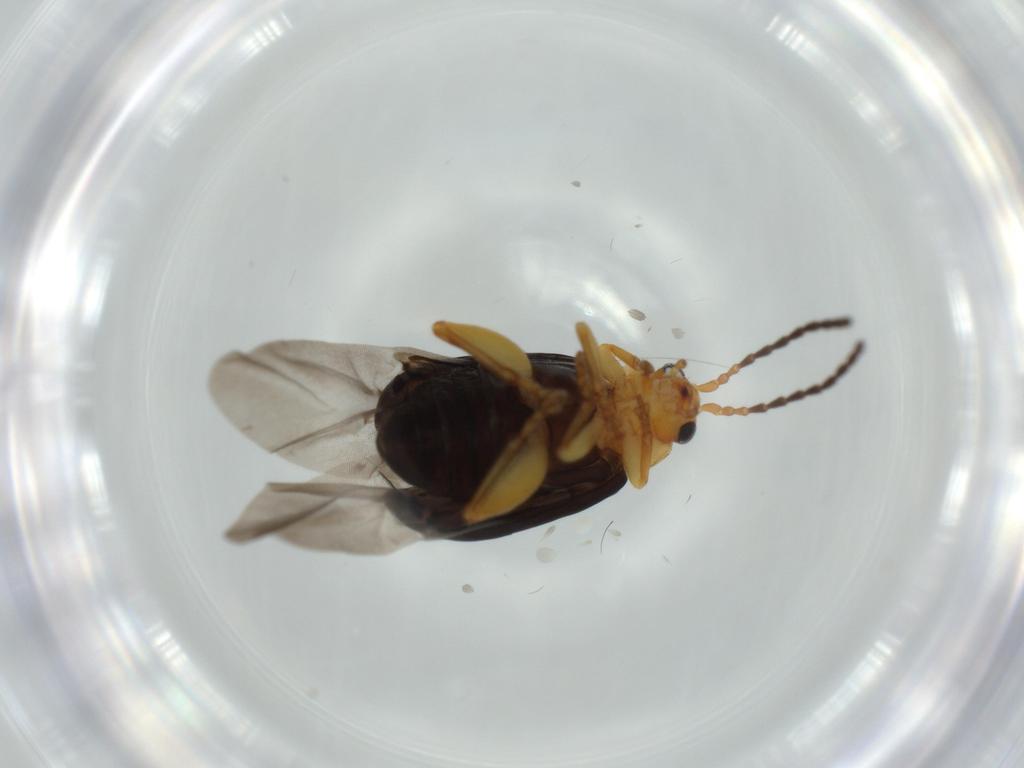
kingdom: Animalia
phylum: Arthropoda
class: Insecta
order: Coleoptera
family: Chrysomelidae
